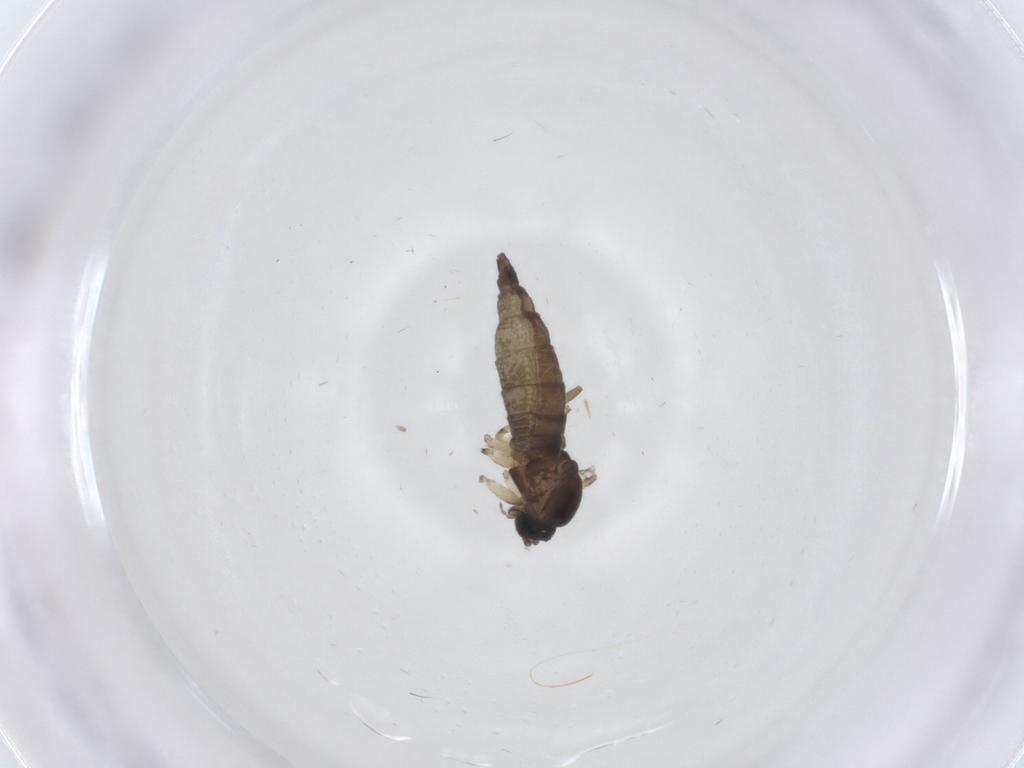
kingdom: Animalia
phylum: Arthropoda
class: Insecta
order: Diptera
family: Sciaridae
